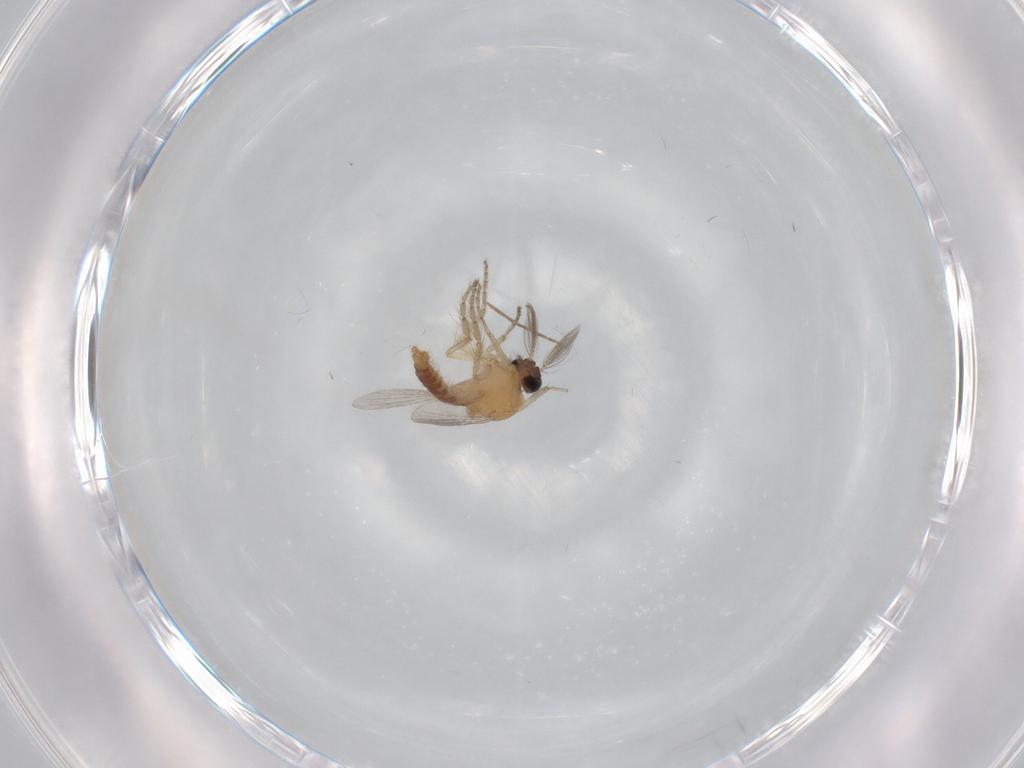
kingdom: Animalia
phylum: Arthropoda
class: Insecta
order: Diptera
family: Ceratopogonidae
